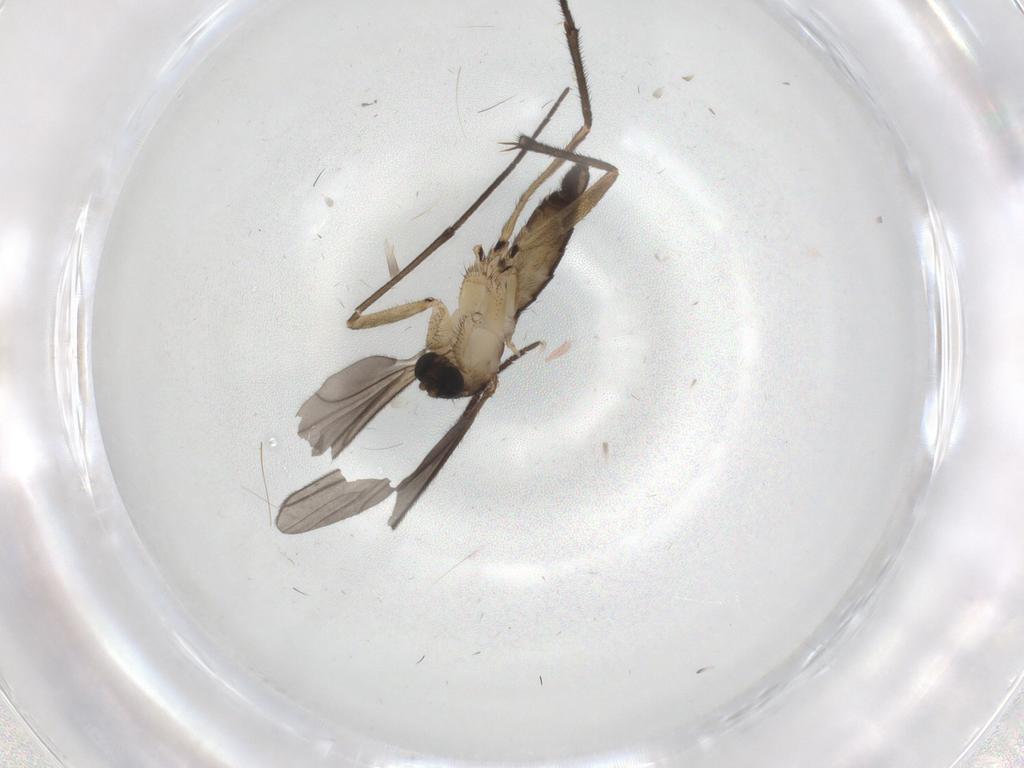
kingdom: Animalia
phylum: Arthropoda
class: Insecta
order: Diptera
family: Sciaridae
